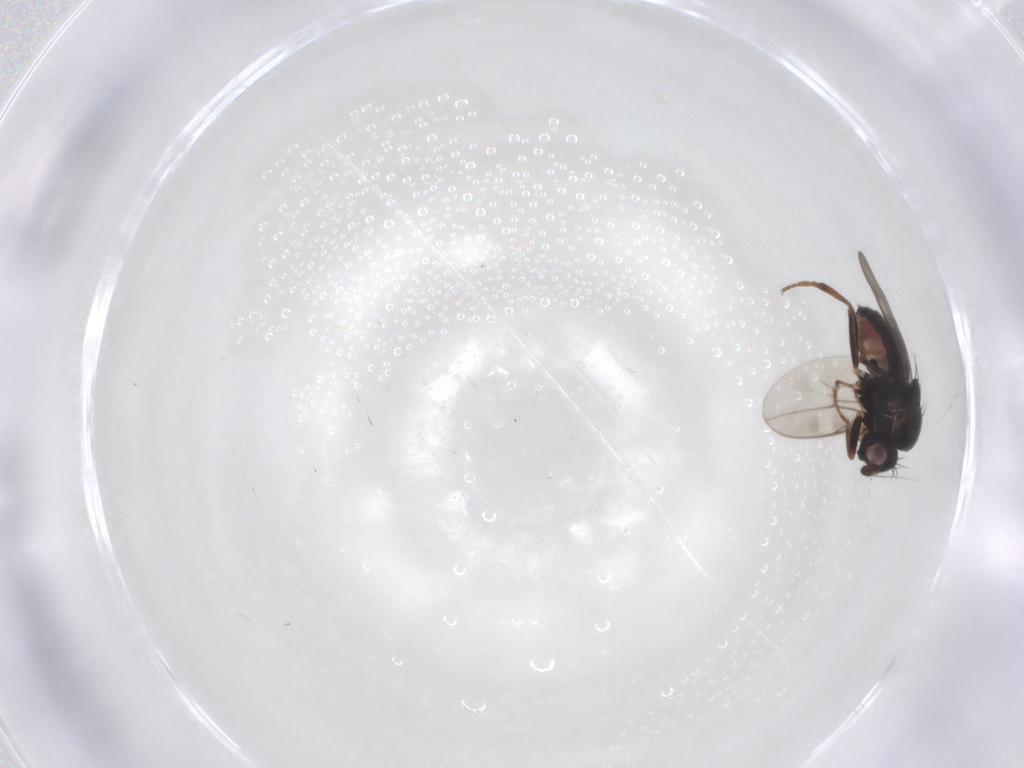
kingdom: Animalia
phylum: Arthropoda
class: Insecta
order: Diptera
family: Sphaeroceridae
